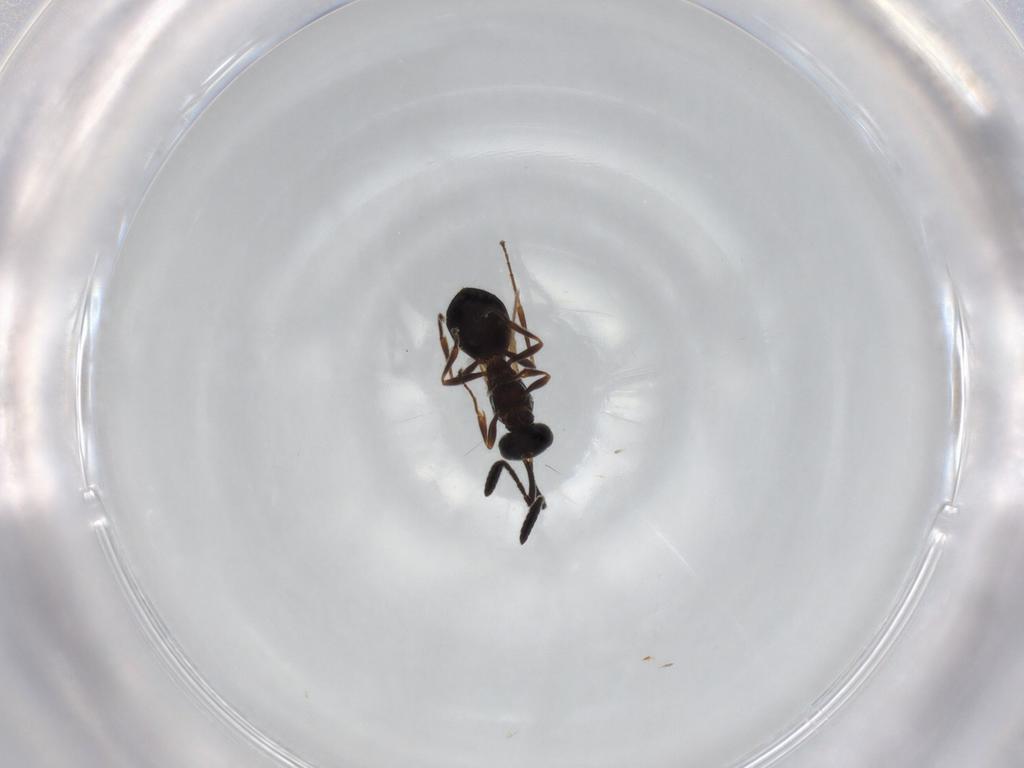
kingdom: Animalia
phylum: Arthropoda
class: Insecta
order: Hymenoptera
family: Scelionidae
